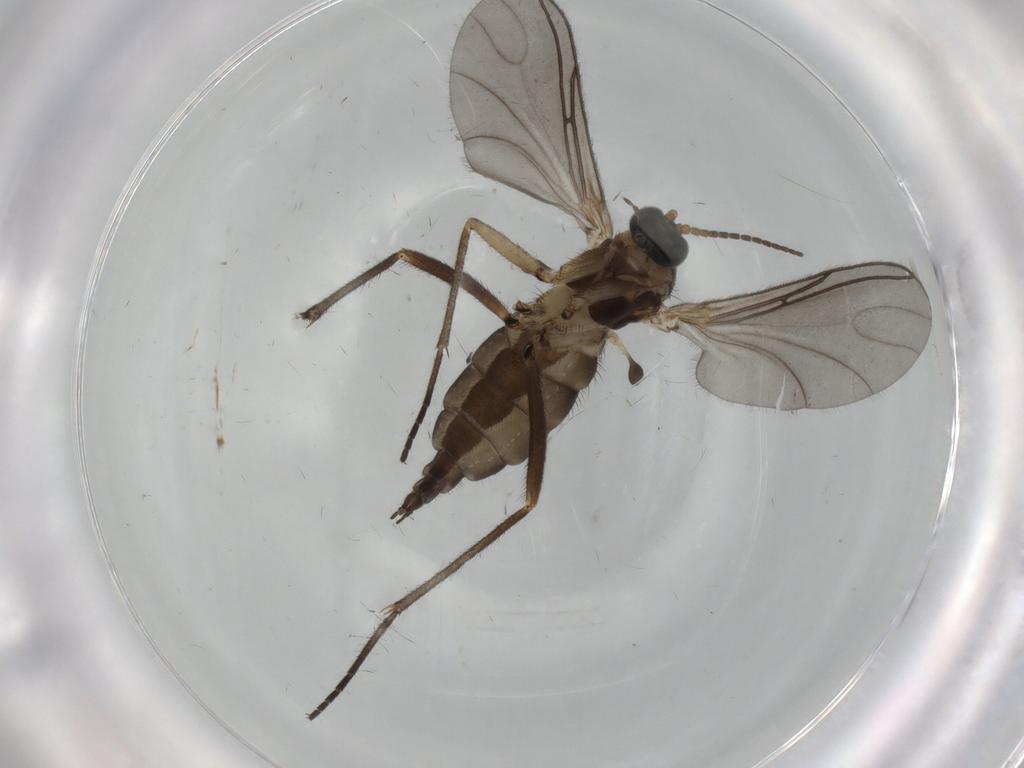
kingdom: Animalia
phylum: Arthropoda
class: Insecta
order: Diptera
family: Sciaridae
